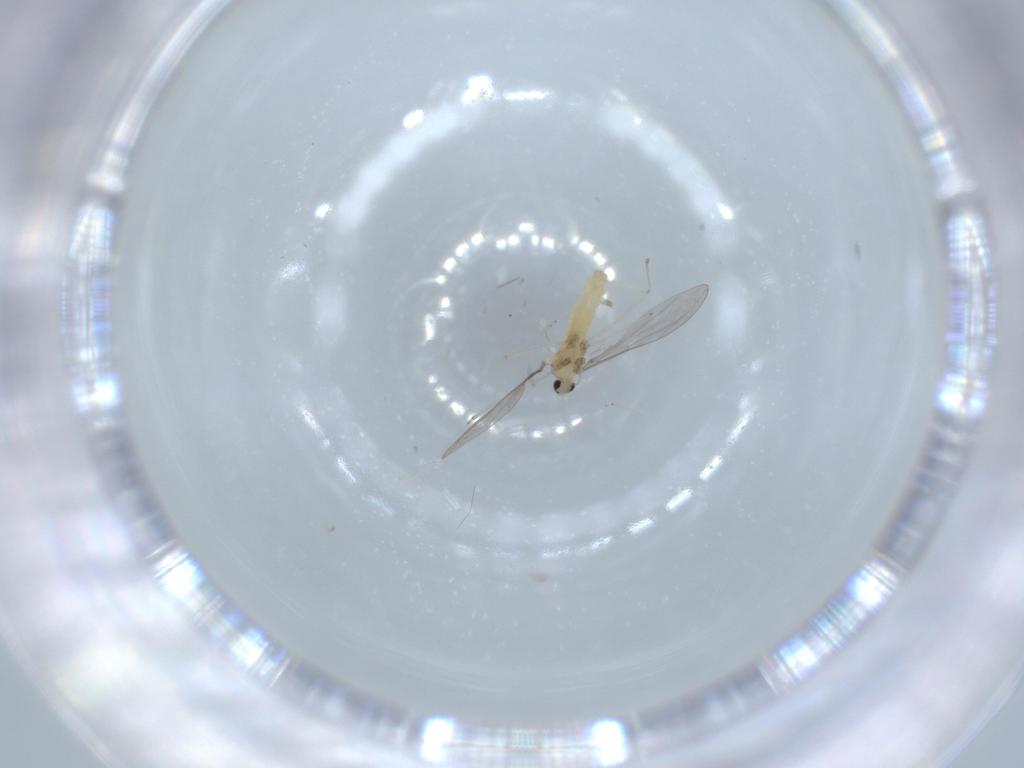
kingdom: Animalia
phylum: Arthropoda
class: Insecta
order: Diptera
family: Cecidomyiidae
